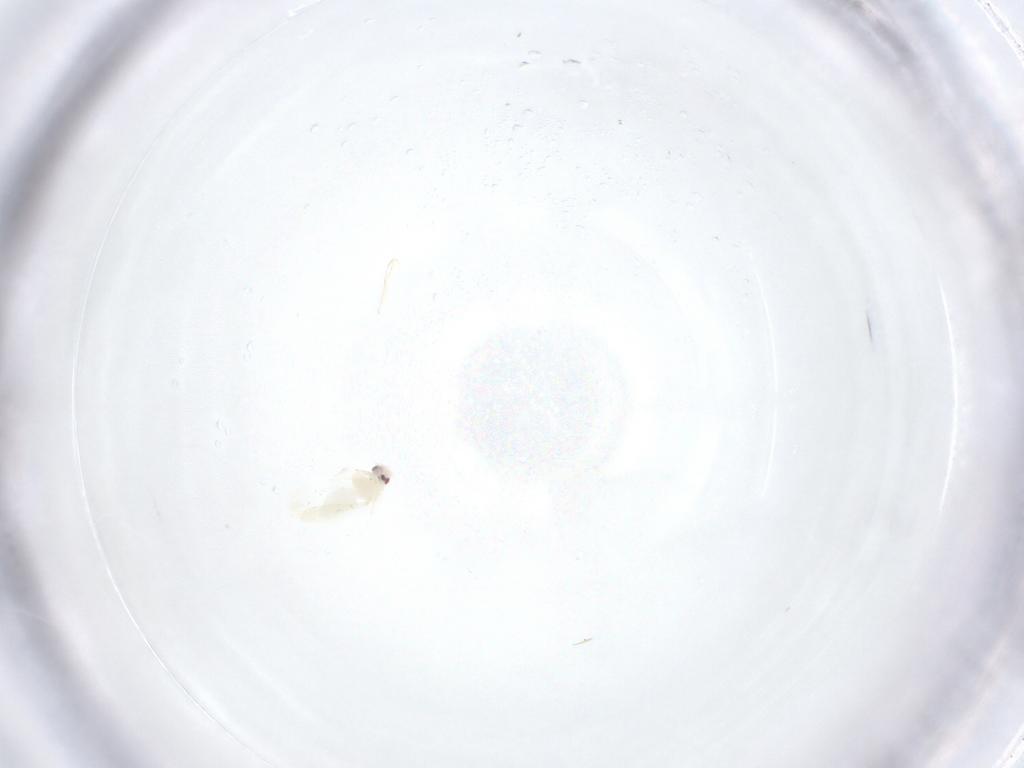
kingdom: Animalia
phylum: Arthropoda
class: Insecta
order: Hemiptera
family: Aleyrodidae
